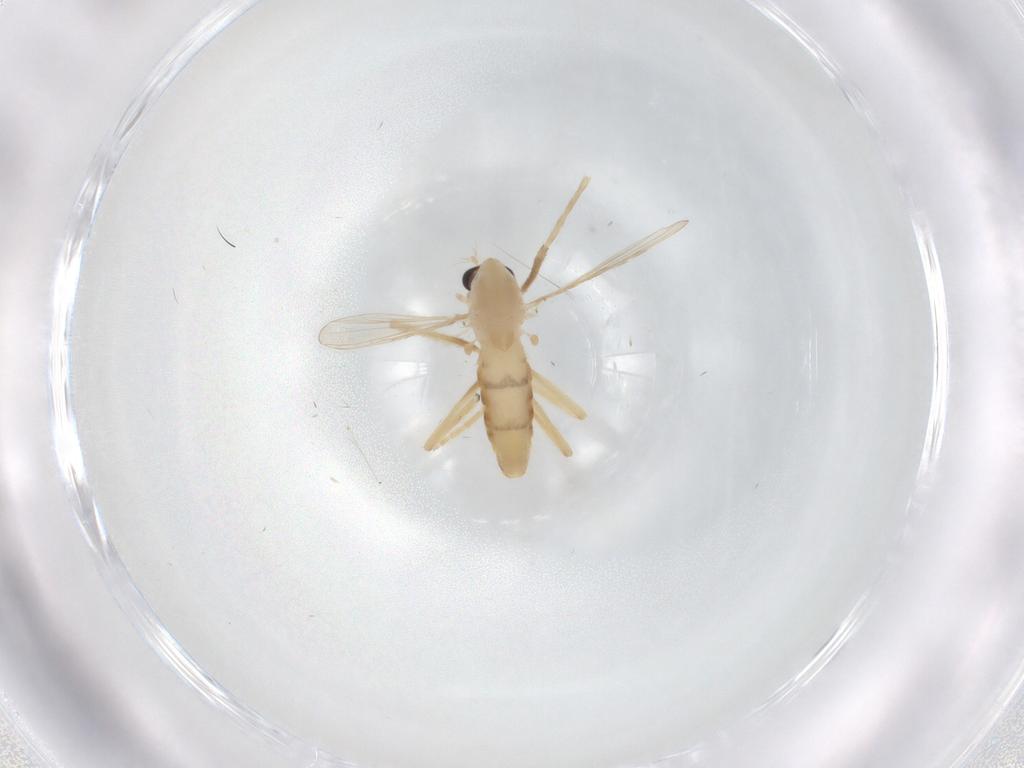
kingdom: Animalia
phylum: Arthropoda
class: Insecta
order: Diptera
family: Chironomidae
